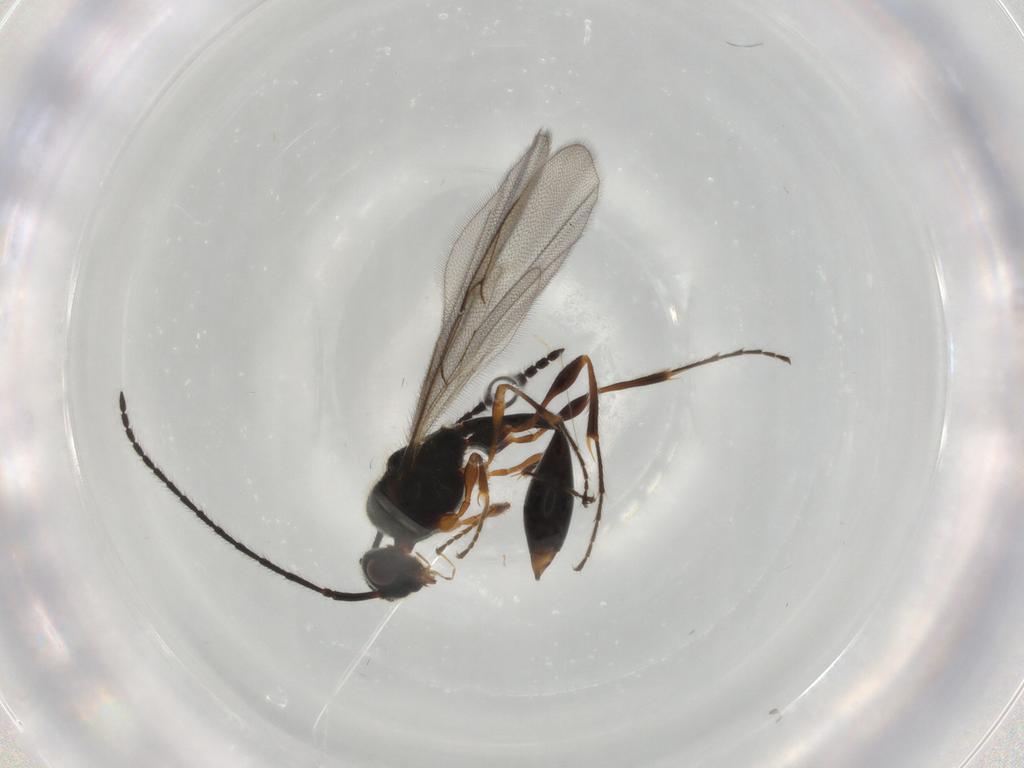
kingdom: Animalia
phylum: Arthropoda
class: Insecta
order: Hymenoptera
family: Diapriidae
